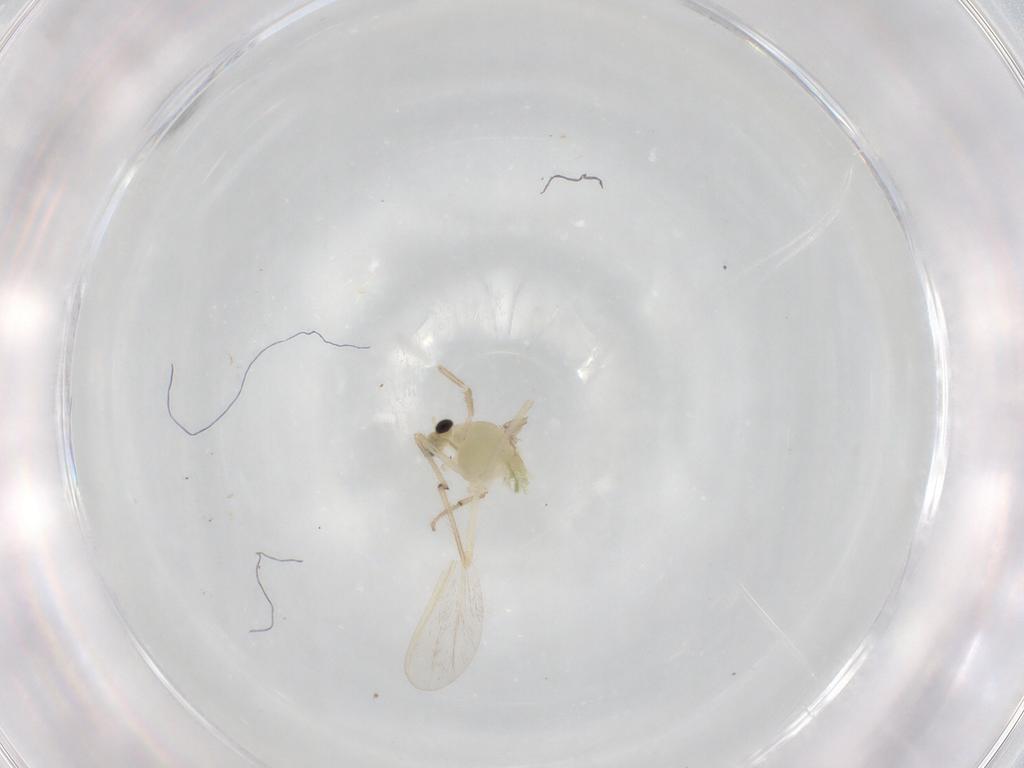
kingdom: Animalia
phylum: Arthropoda
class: Insecta
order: Diptera
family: Chironomidae
